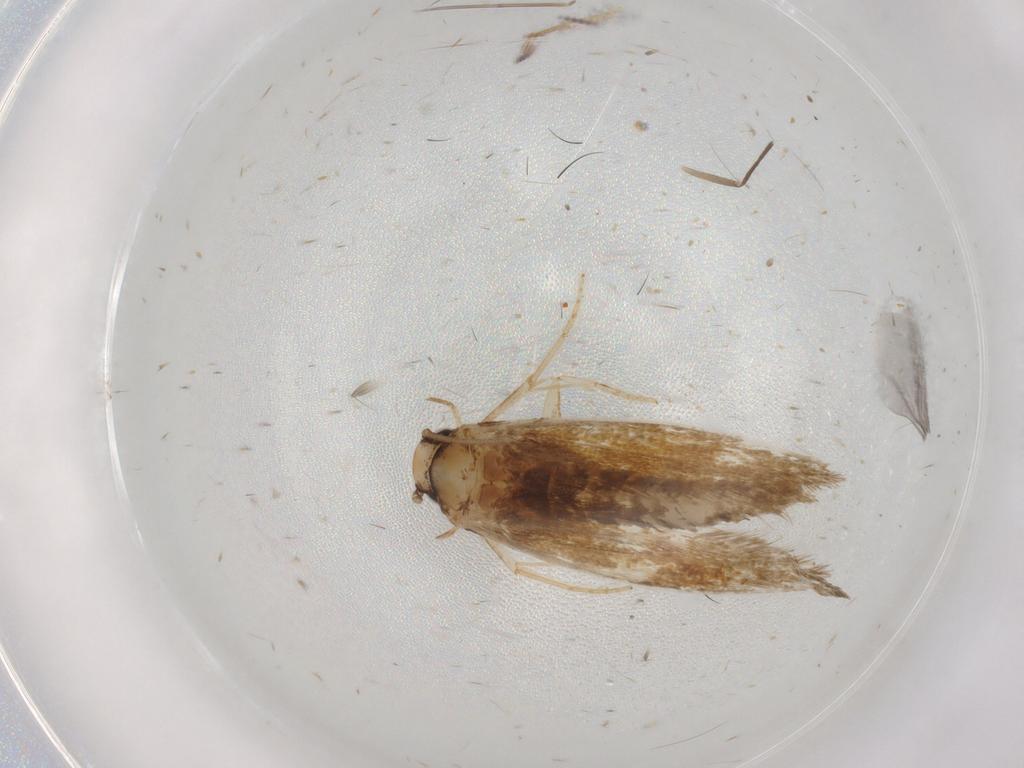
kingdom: Animalia
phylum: Arthropoda
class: Insecta
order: Lepidoptera
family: Tineidae
